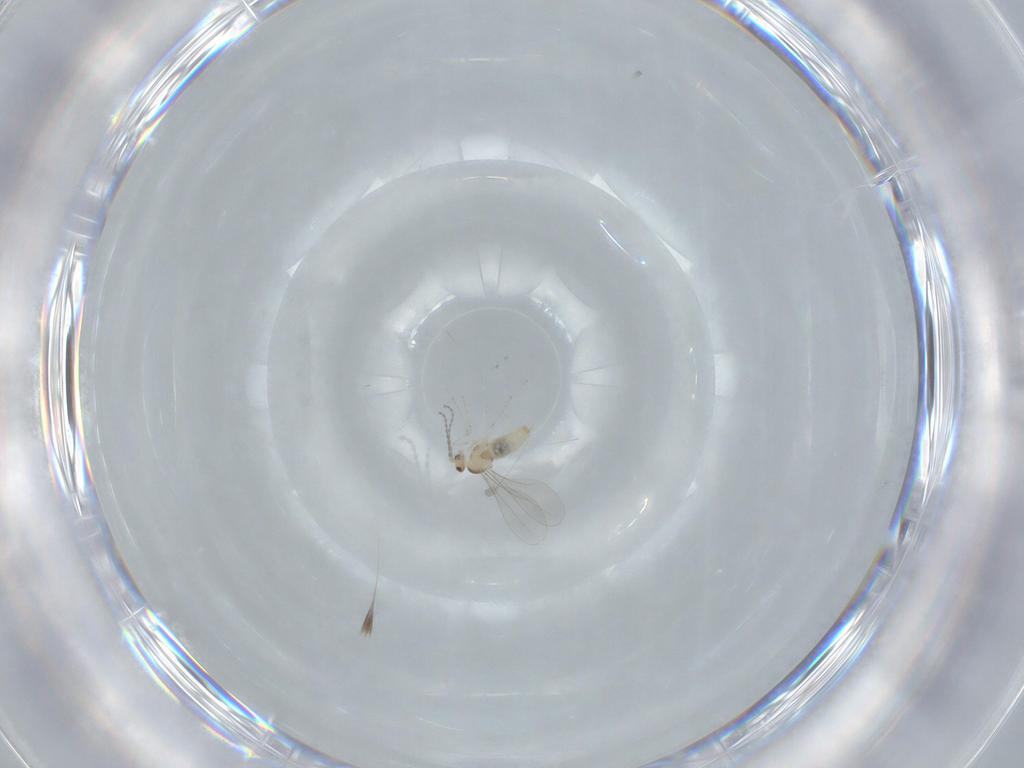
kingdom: Animalia
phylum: Arthropoda
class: Insecta
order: Diptera
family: Cecidomyiidae
